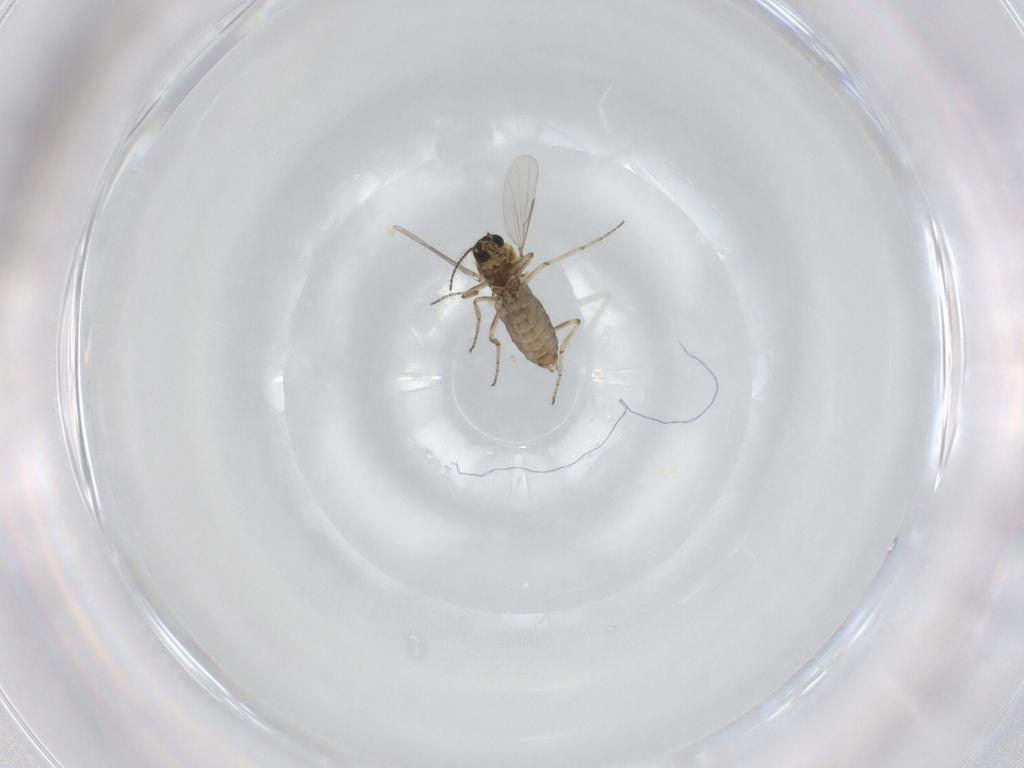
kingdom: Animalia
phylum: Arthropoda
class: Insecta
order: Diptera
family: Ceratopogonidae
